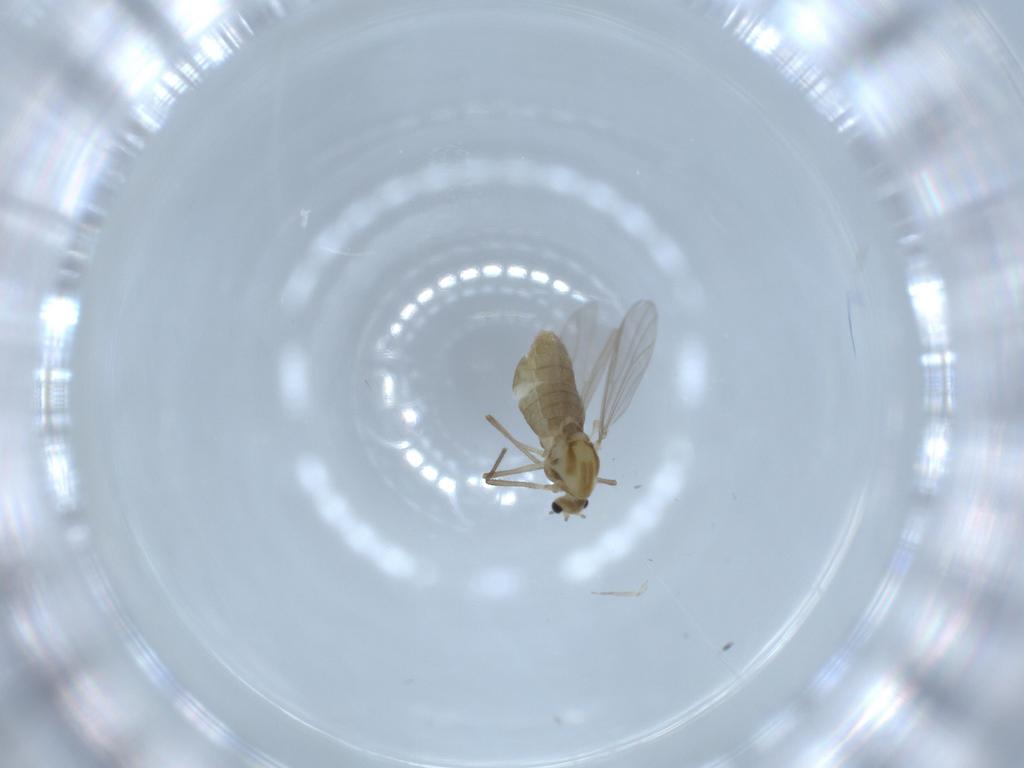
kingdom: Animalia
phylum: Arthropoda
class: Insecta
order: Diptera
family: Chironomidae
